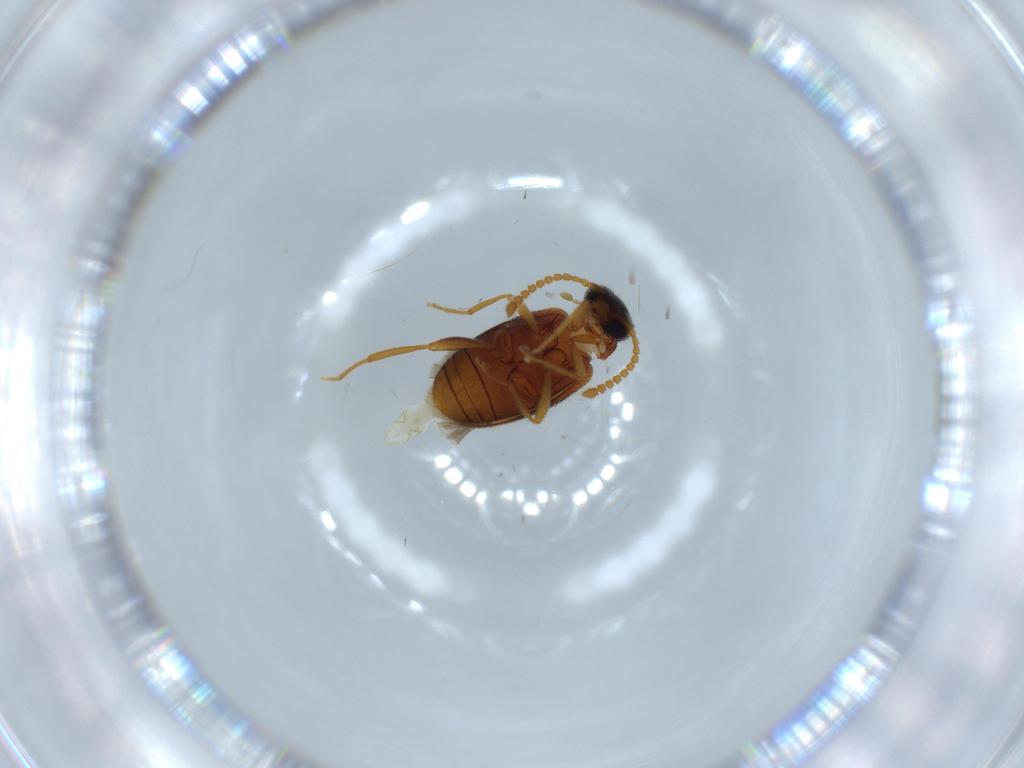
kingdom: Animalia
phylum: Arthropoda
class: Insecta
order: Coleoptera
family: Aderidae
